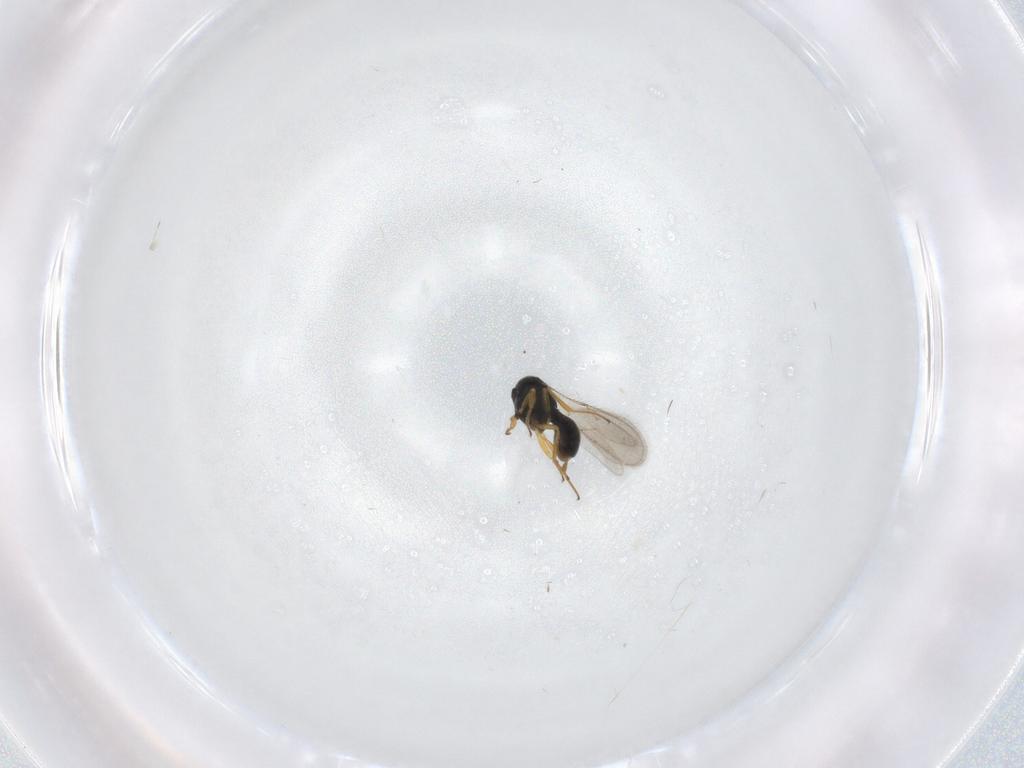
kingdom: Animalia
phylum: Arthropoda
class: Insecta
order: Hymenoptera
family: Scelionidae
